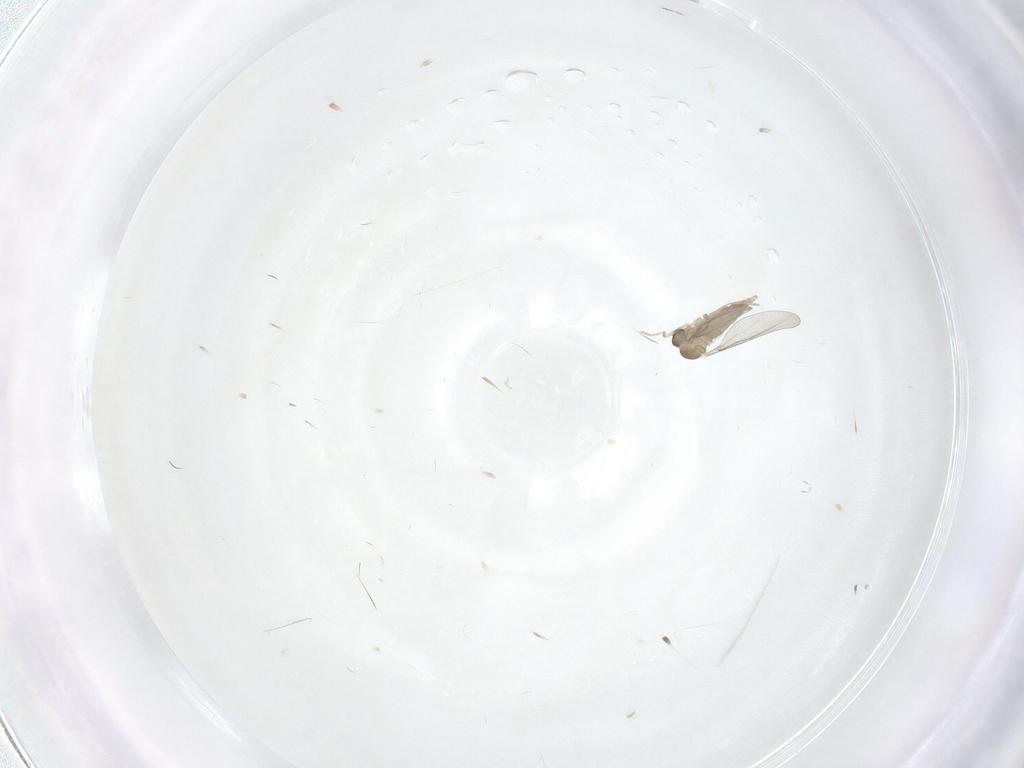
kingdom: Animalia
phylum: Arthropoda
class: Insecta
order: Diptera
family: Cecidomyiidae
